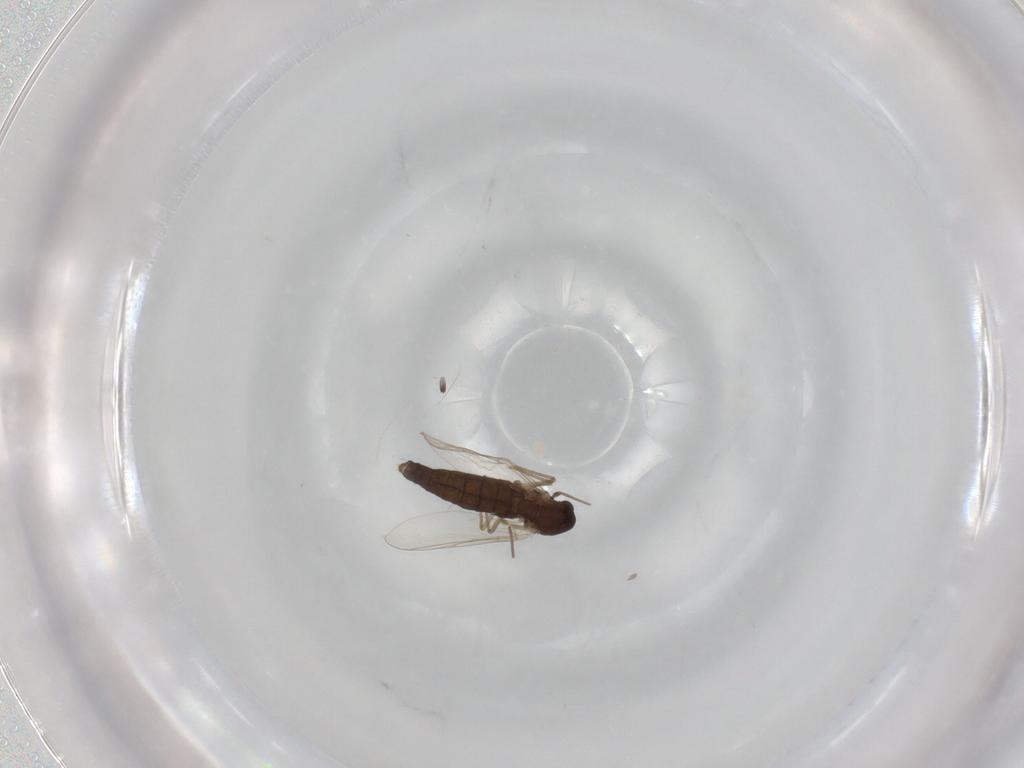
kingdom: Animalia
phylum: Arthropoda
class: Insecta
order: Diptera
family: Chironomidae
